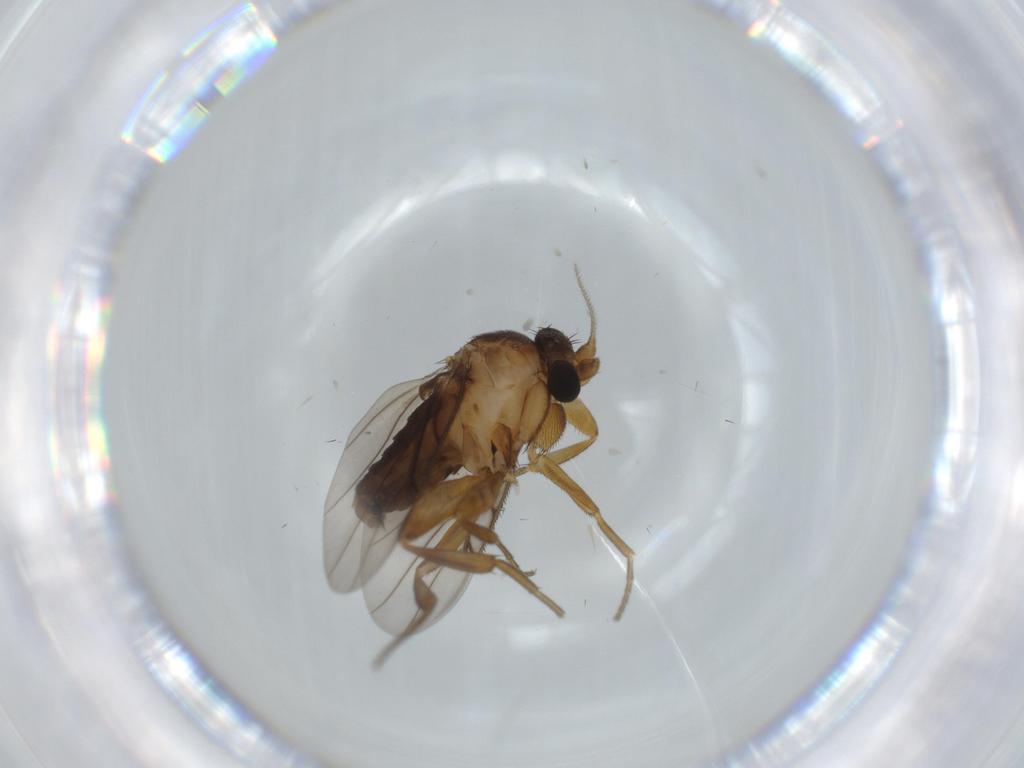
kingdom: Animalia
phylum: Arthropoda
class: Insecta
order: Diptera
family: Sciaridae
